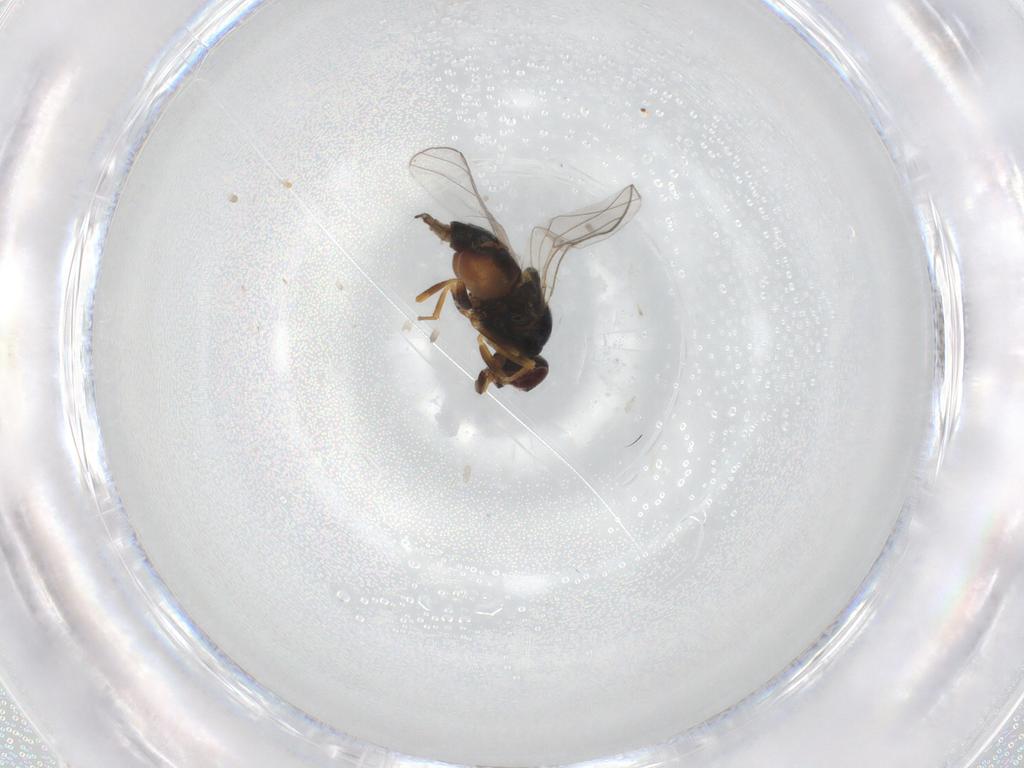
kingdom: Animalia
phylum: Arthropoda
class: Insecta
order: Diptera
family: Chloropidae
